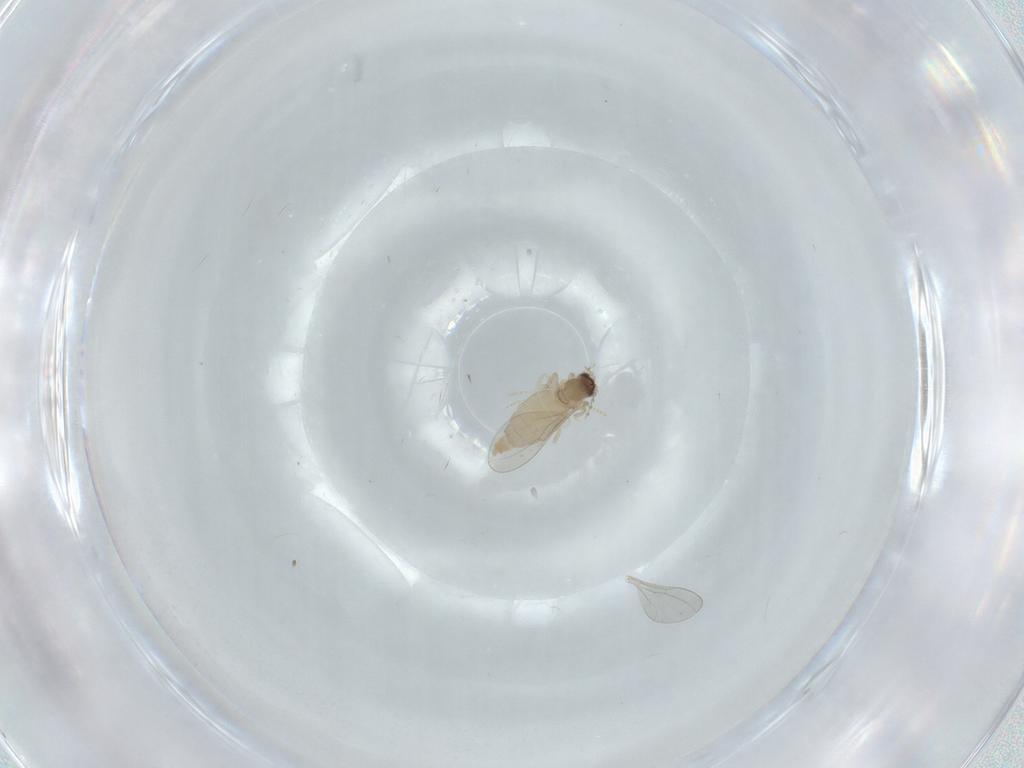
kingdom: Animalia
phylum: Arthropoda
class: Insecta
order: Diptera
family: Cecidomyiidae
